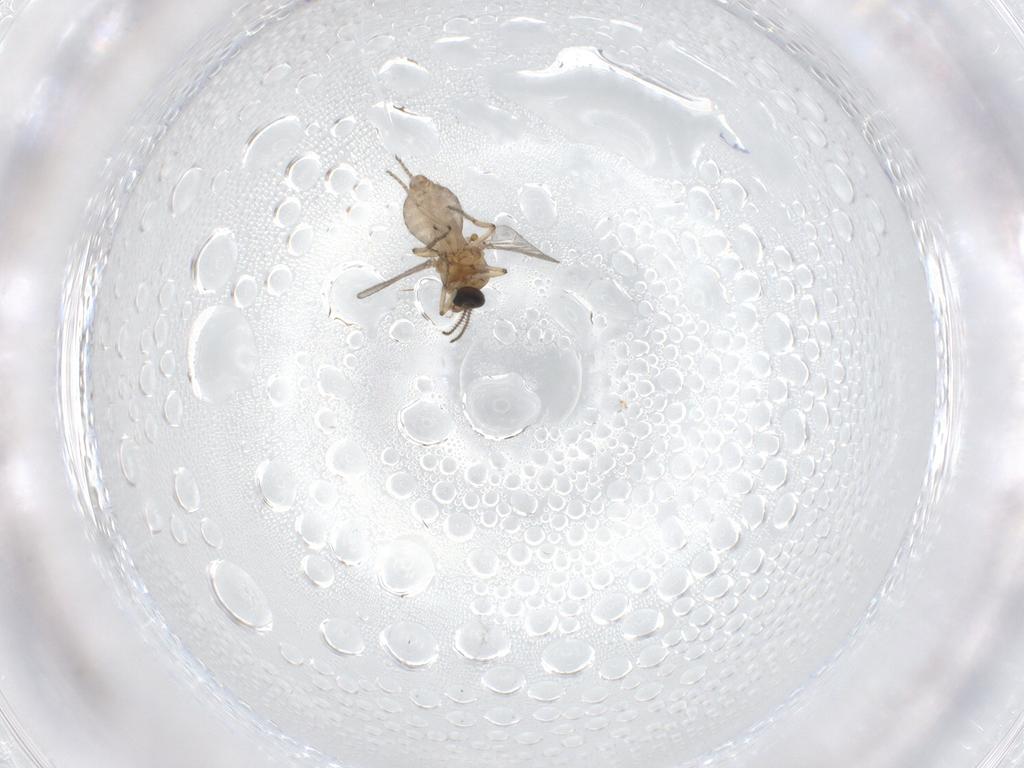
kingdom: Animalia
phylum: Arthropoda
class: Insecta
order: Diptera
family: Ceratopogonidae
